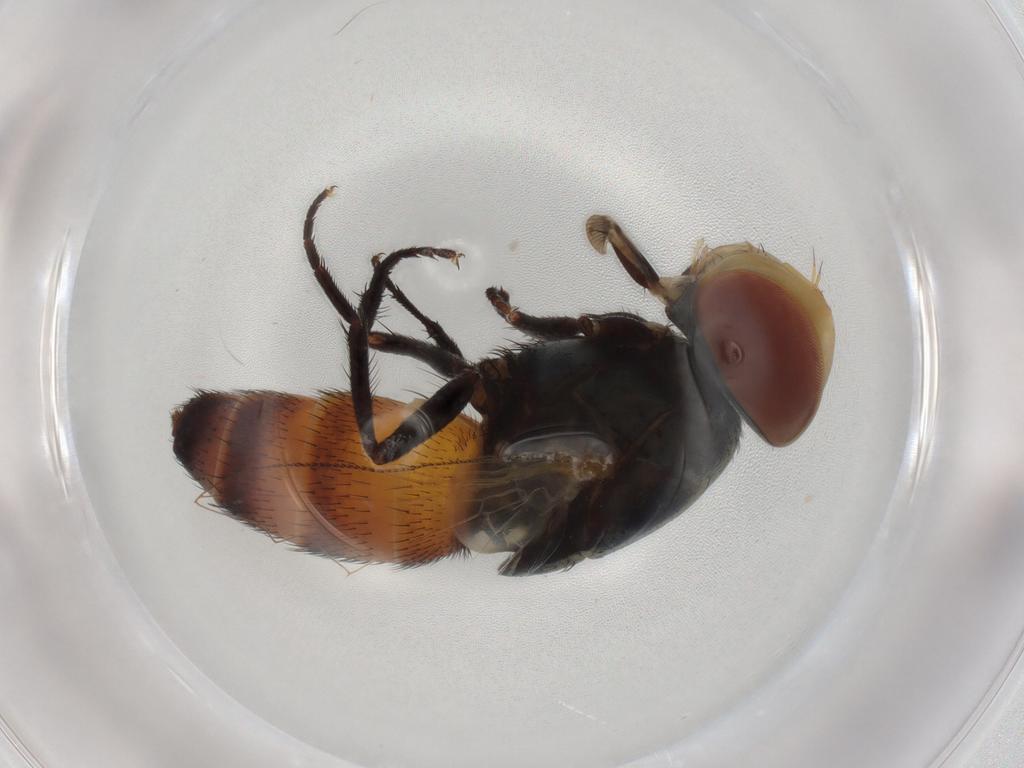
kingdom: Animalia
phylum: Arthropoda
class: Insecta
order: Diptera
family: Sarcophagidae
